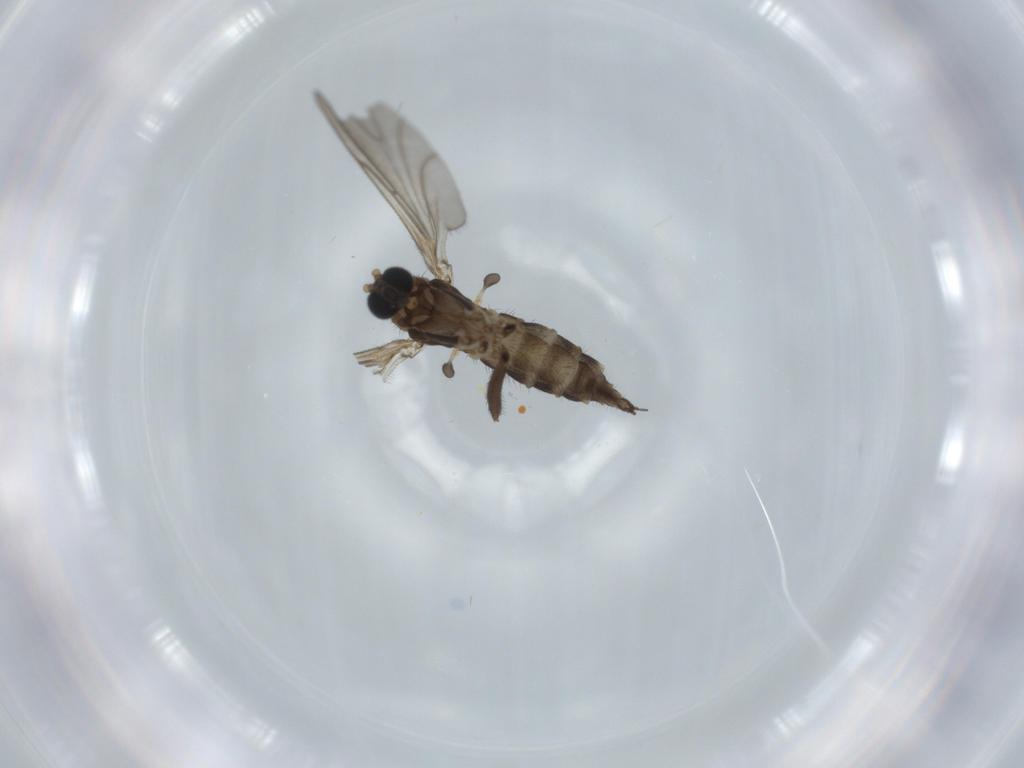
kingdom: Animalia
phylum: Arthropoda
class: Insecta
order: Diptera
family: Sciaridae
